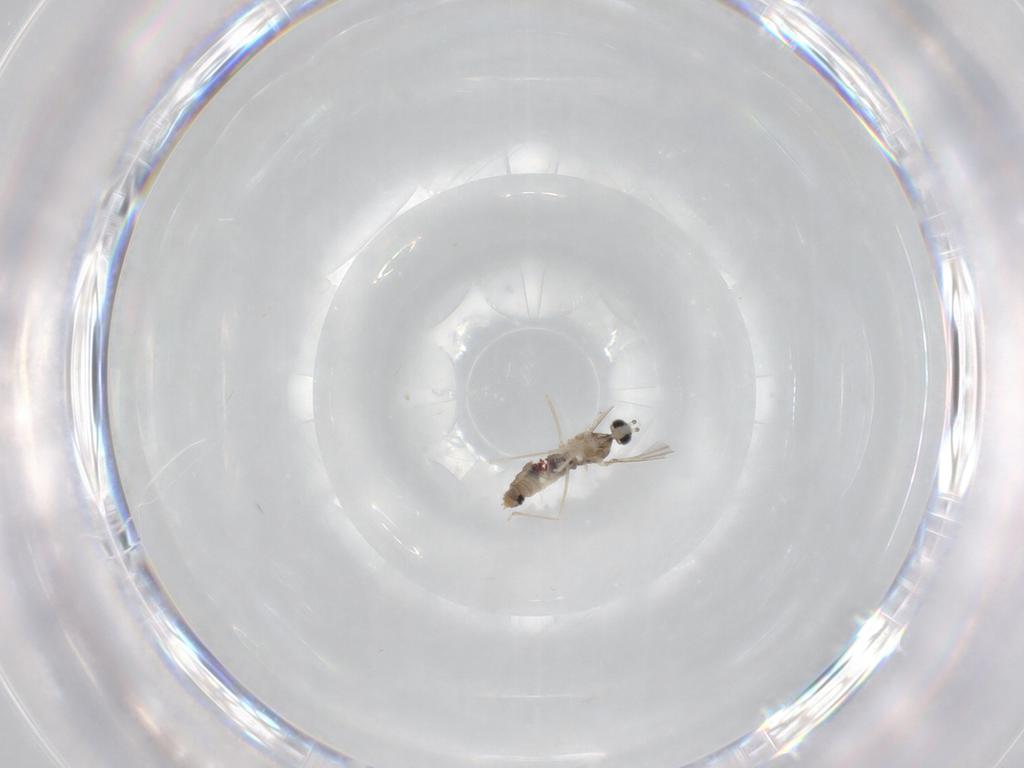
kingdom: Animalia
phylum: Arthropoda
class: Insecta
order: Diptera
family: Cecidomyiidae
